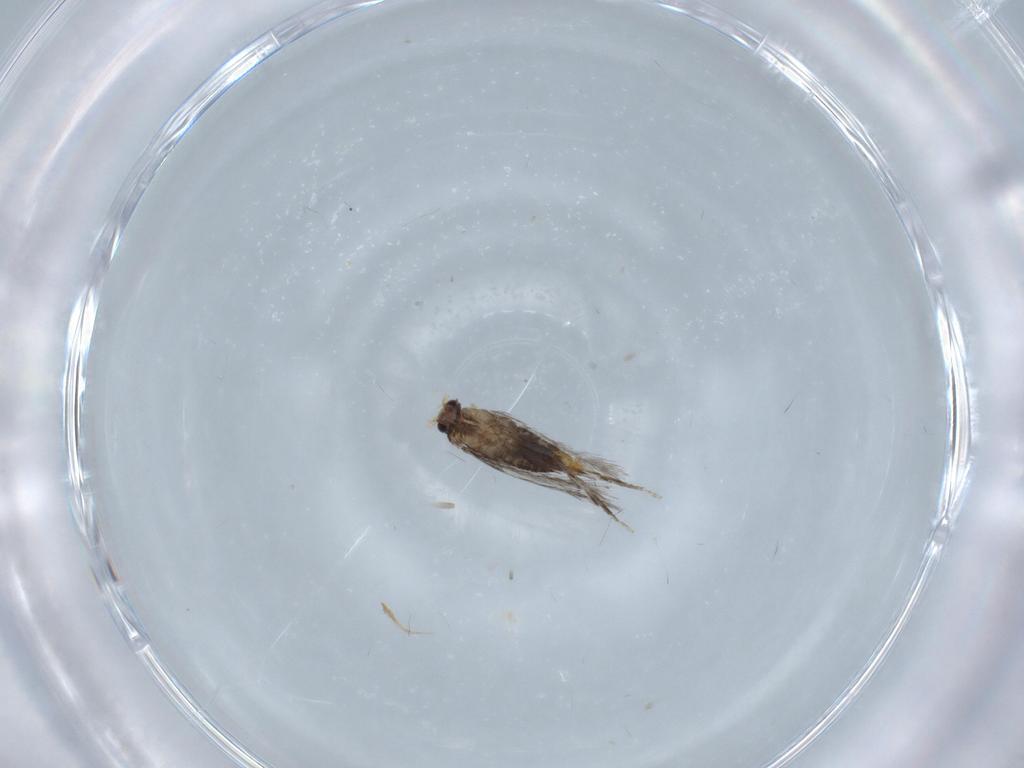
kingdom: Animalia
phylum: Arthropoda
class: Insecta
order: Lepidoptera
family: Nepticulidae
